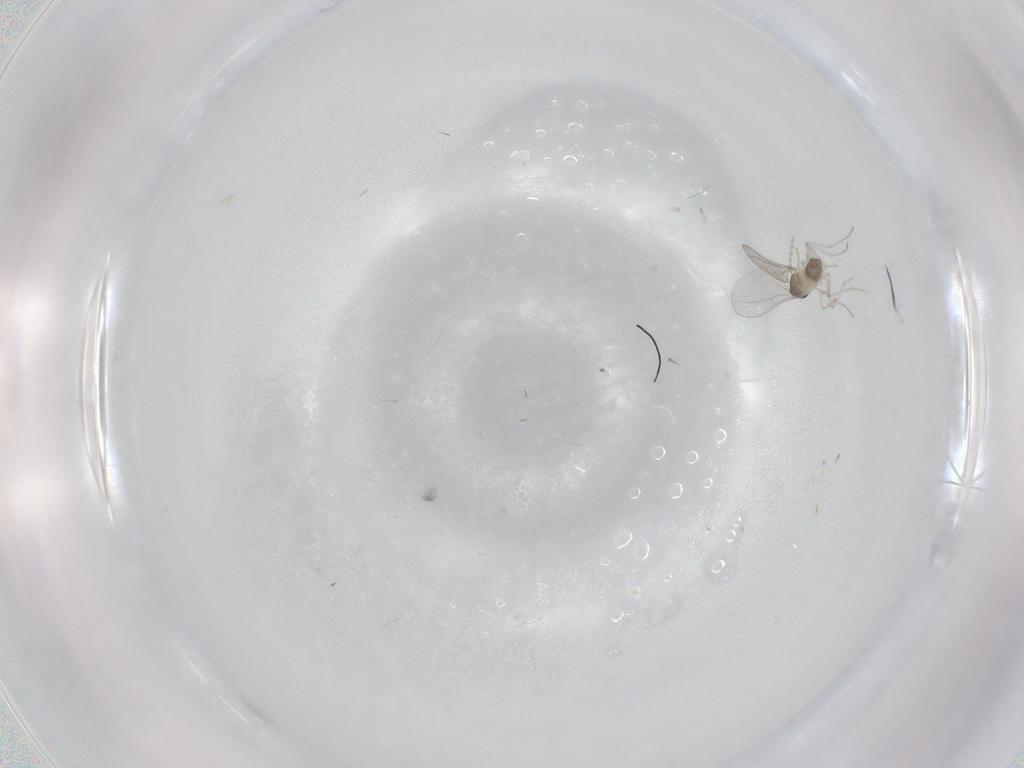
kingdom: Animalia
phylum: Arthropoda
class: Insecta
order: Diptera
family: Cecidomyiidae
